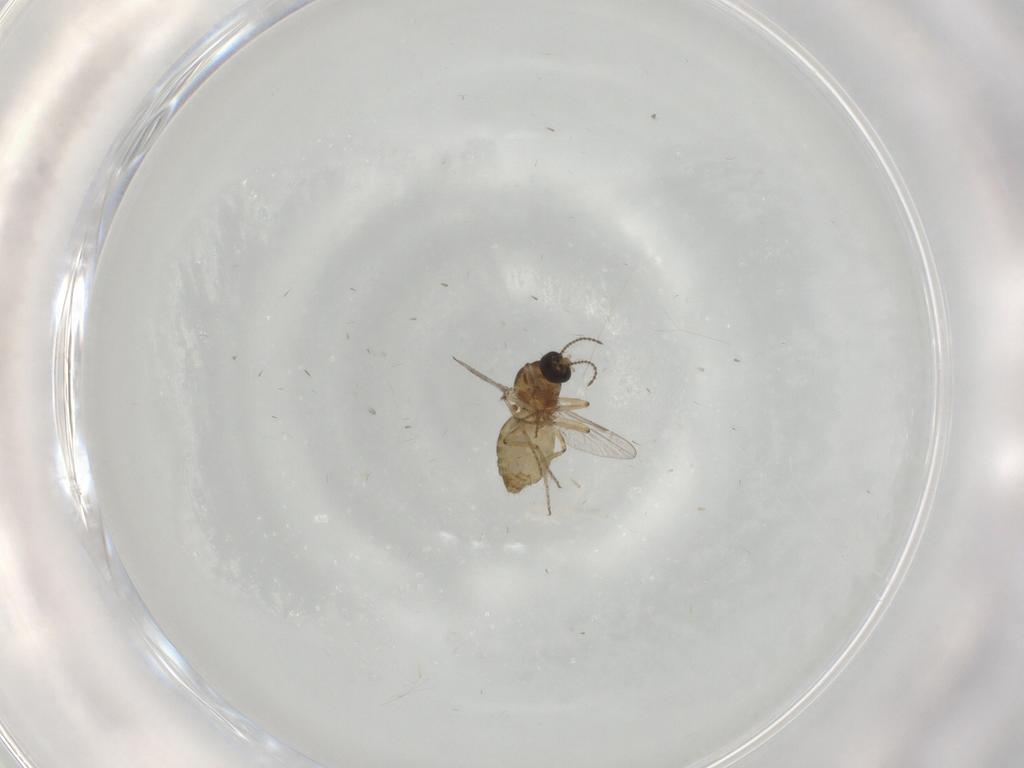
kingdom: Animalia
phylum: Arthropoda
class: Insecta
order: Diptera
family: Ceratopogonidae
